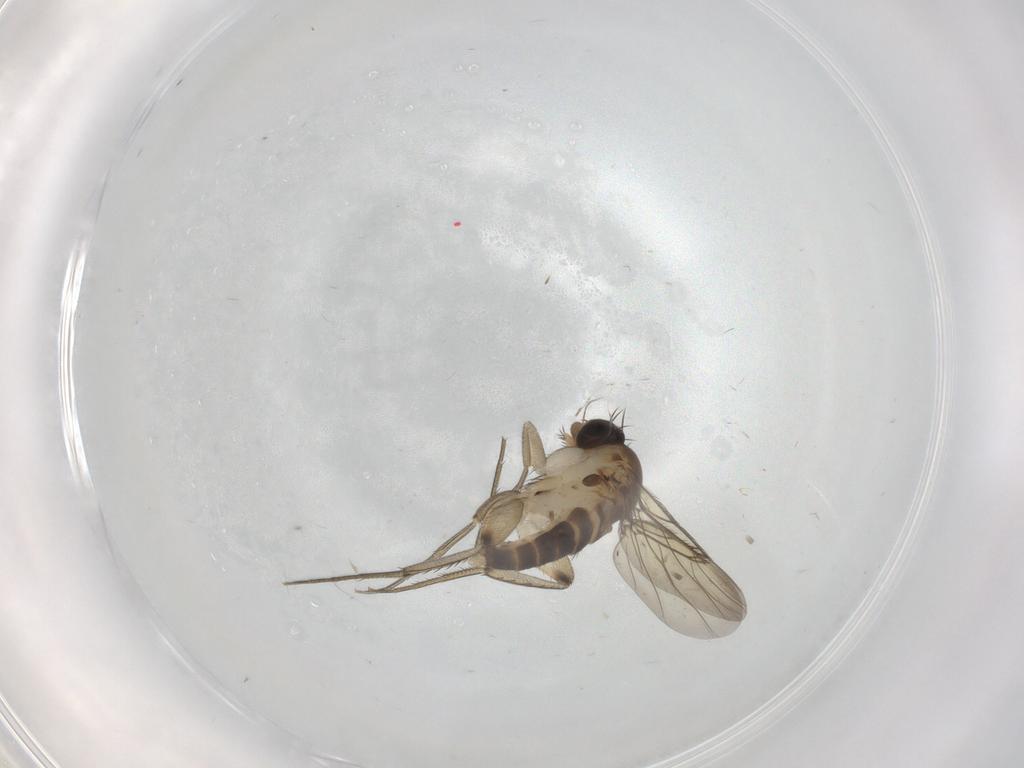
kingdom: Animalia
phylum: Arthropoda
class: Insecta
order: Diptera
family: Phoridae
